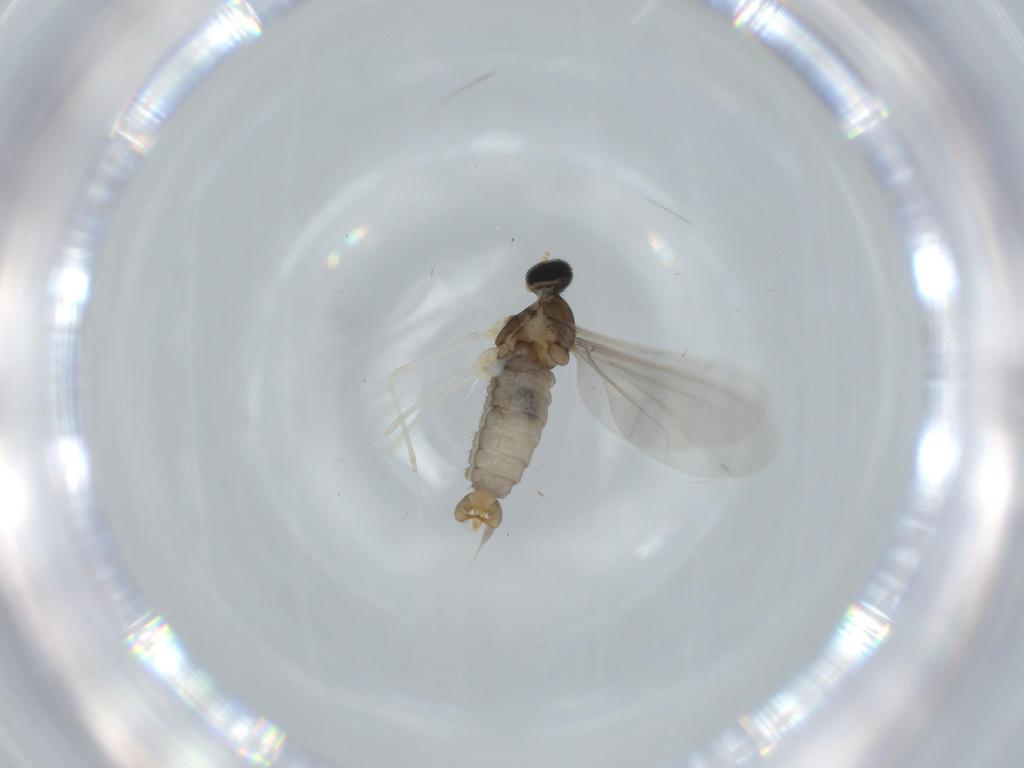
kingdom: Animalia
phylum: Arthropoda
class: Insecta
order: Diptera
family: Cecidomyiidae
